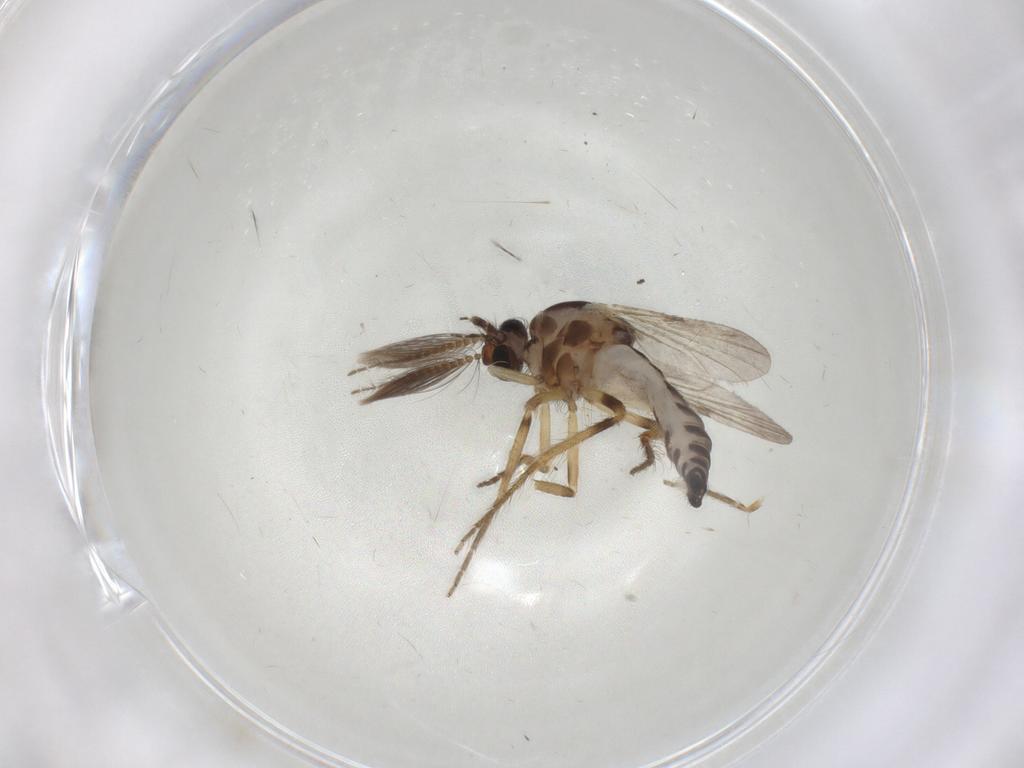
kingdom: Animalia
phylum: Arthropoda
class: Insecta
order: Diptera
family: Ceratopogonidae
